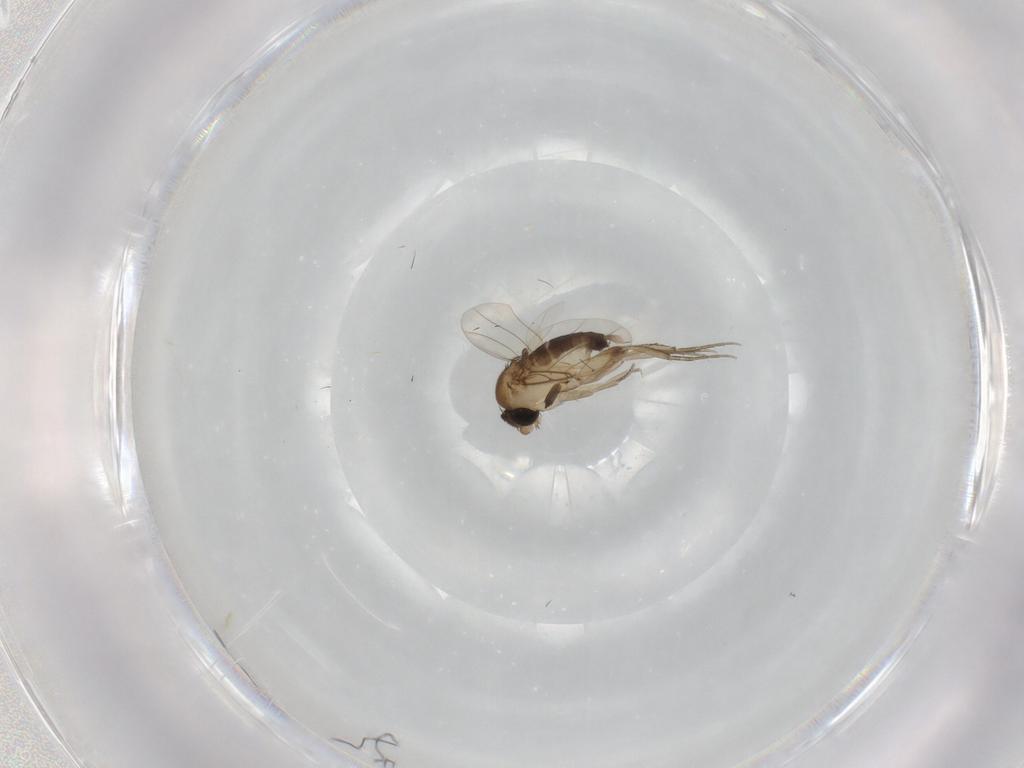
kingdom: Animalia
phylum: Arthropoda
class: Insecta
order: Diptera
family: Phoridae
